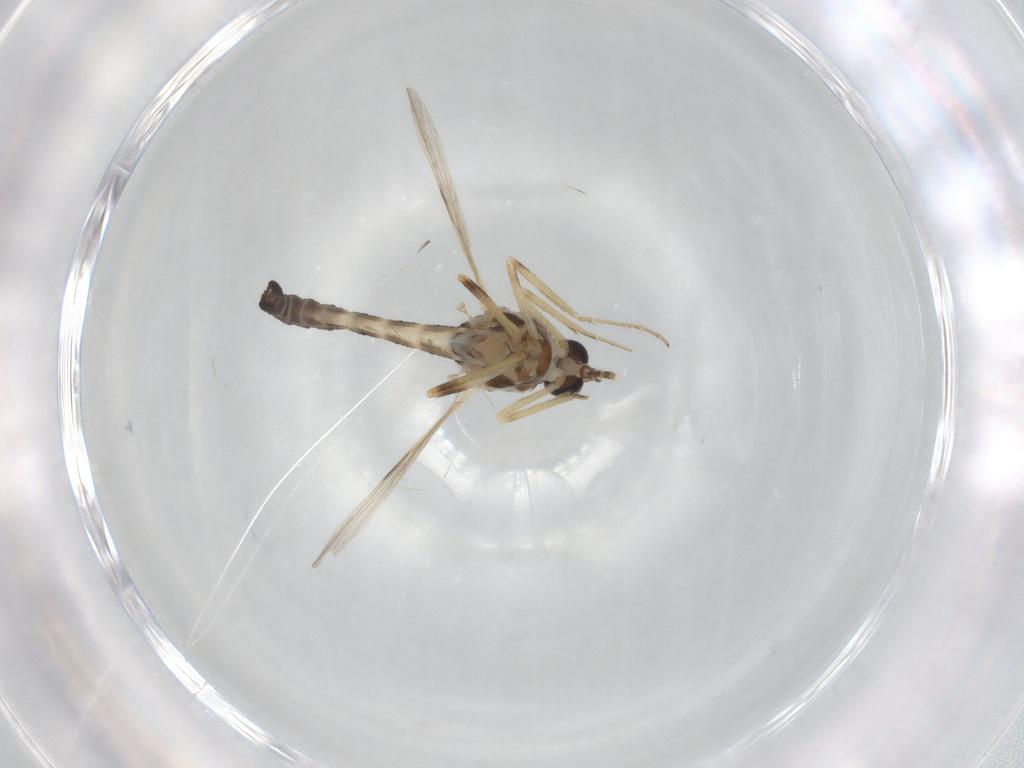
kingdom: Animalia
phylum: Arthropoda
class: Insecta
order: Diptera
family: Ceratopogonidae
